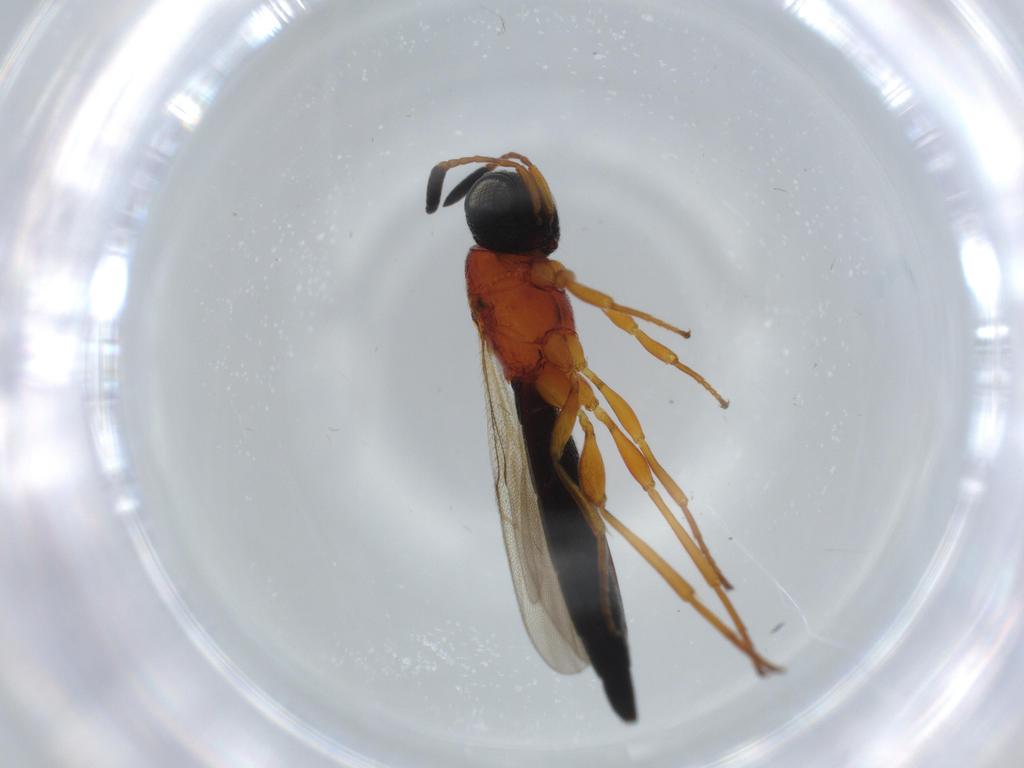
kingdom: Animalia
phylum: Arthropoda
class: Insecta
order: Hymenoptera
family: Scelionidae
